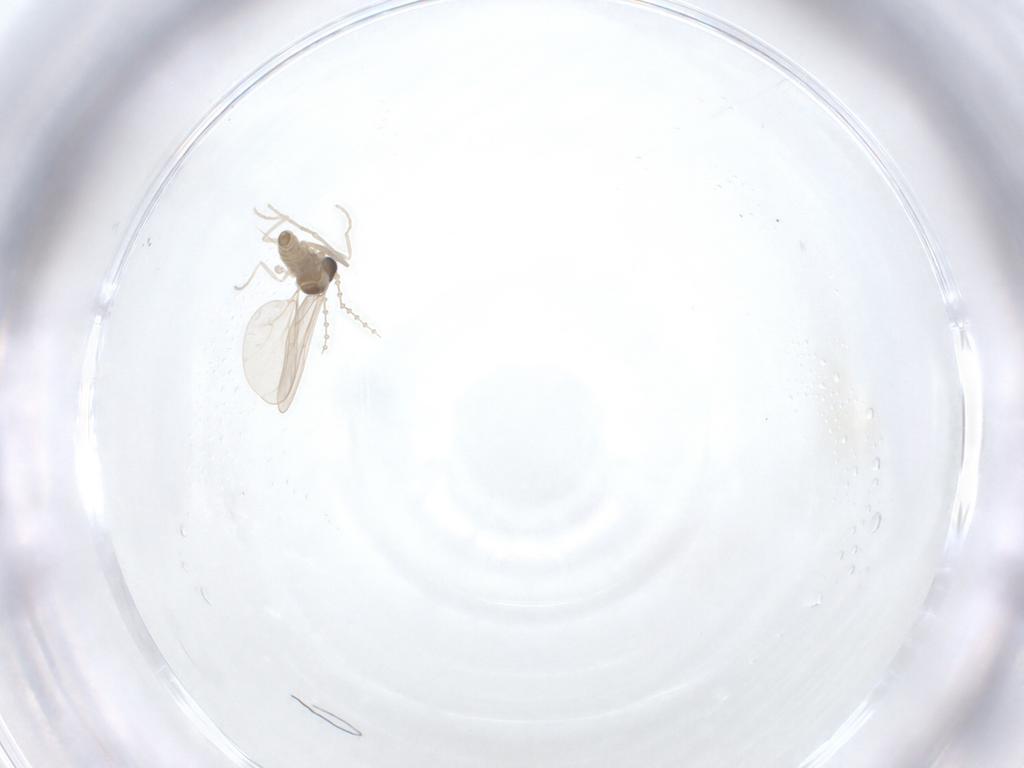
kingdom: Animalia
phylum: Arthropoda
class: Insecta
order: Diptera
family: Cecidomyiidae
